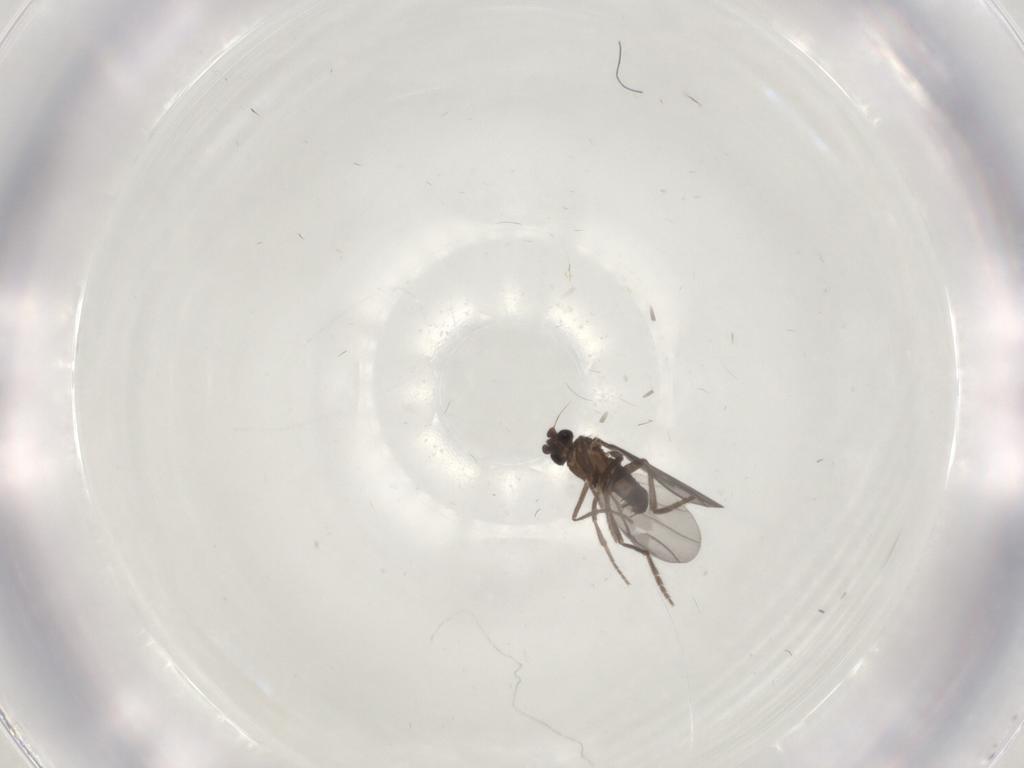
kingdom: Animalia
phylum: Arthropoda
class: Insecta
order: Diptera
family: Phoridae
